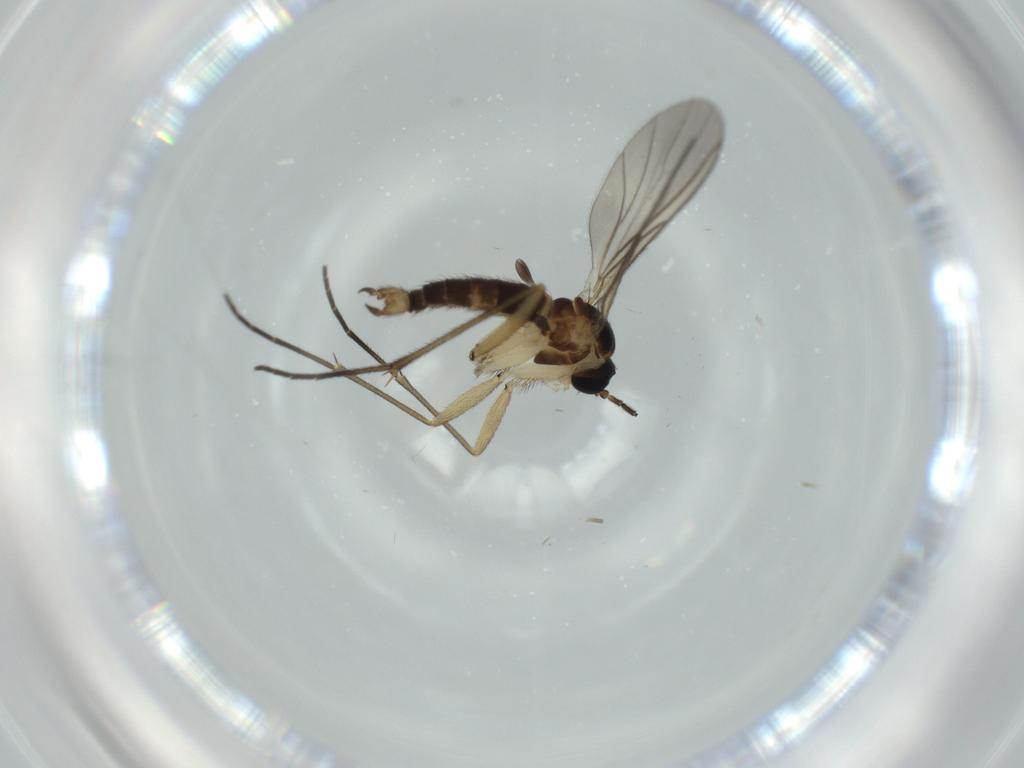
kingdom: Animalia
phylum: Arthropoda
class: Insecta
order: Diptera
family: Sciaridae
